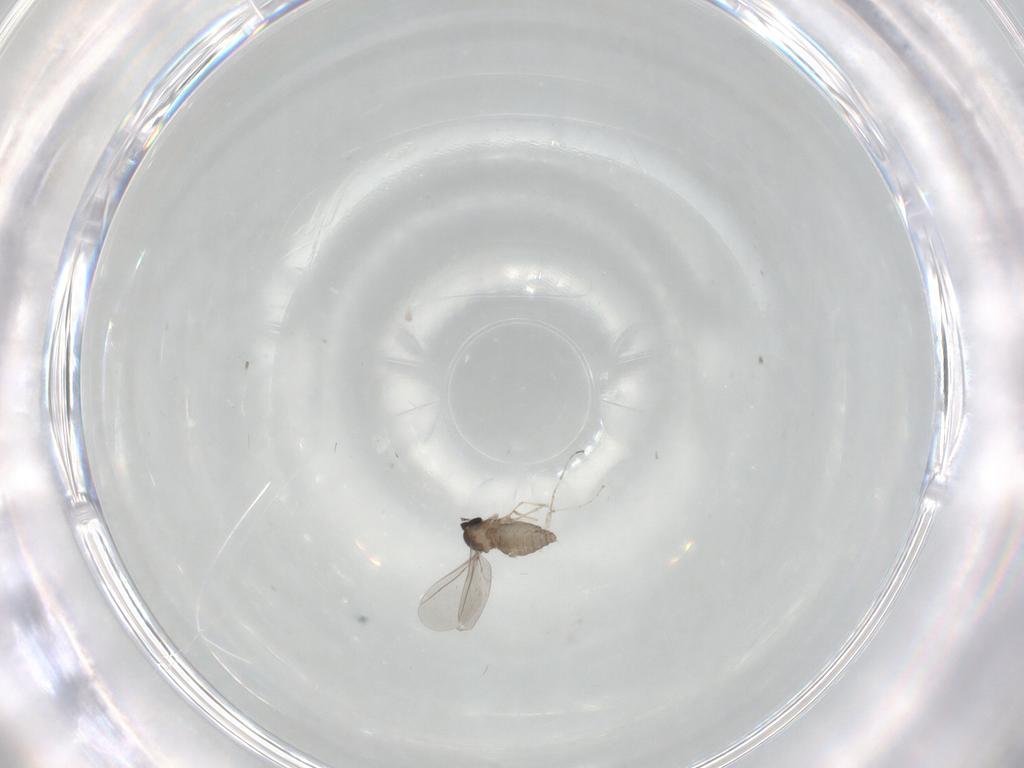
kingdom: Animalia
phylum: Arthropoda
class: Insecta
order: Diptera
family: Cecidomyiidae
